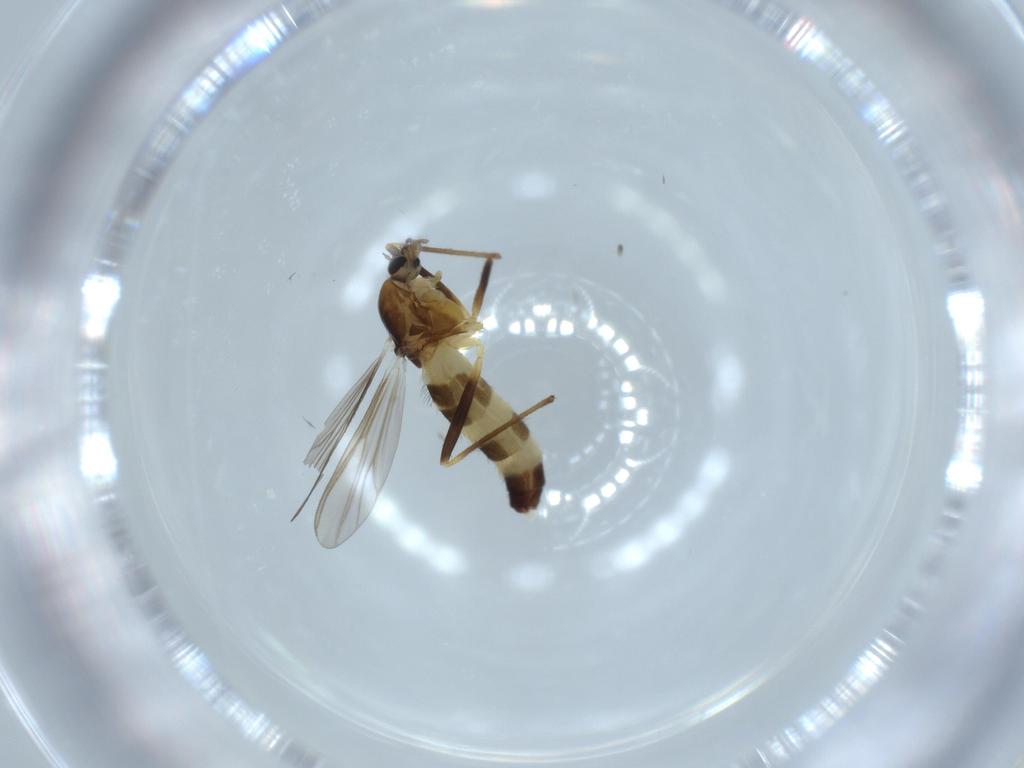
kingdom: Animalia
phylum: Arthropoda
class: Insecta
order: Diptera
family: Chironomidae
